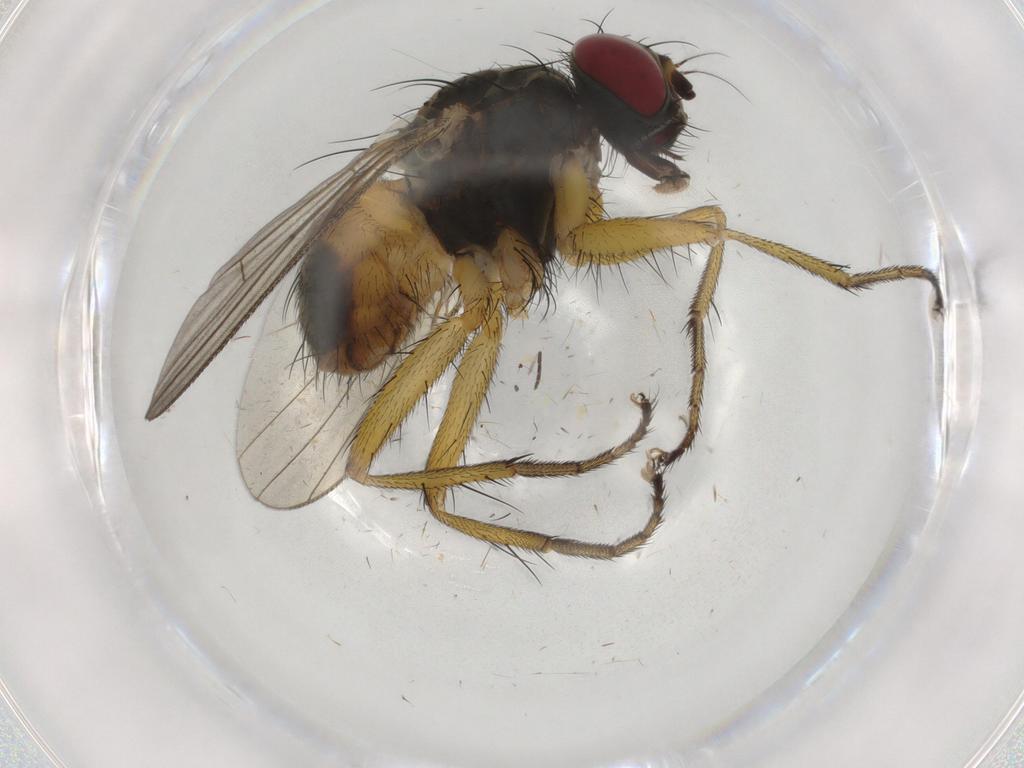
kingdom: Animalia
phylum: Arthropoda
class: Insecta
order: Diptera
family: Muscidae
